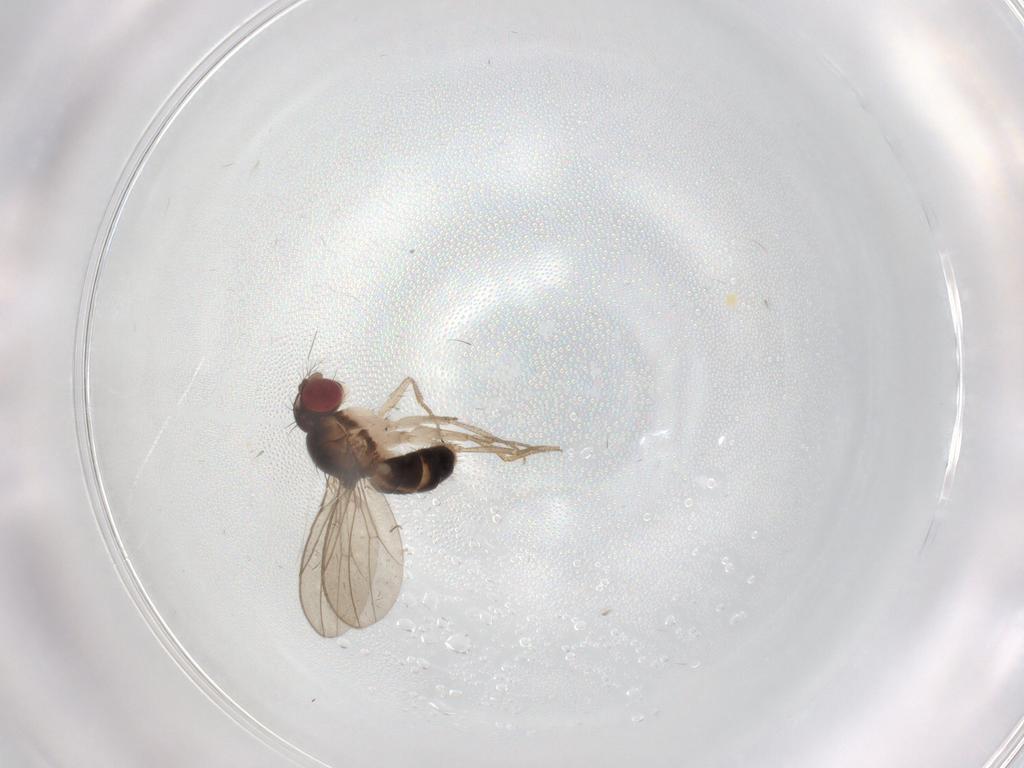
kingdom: Animalia
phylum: Arthropoda
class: Insecta
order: Diptera
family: Drosophilidae
